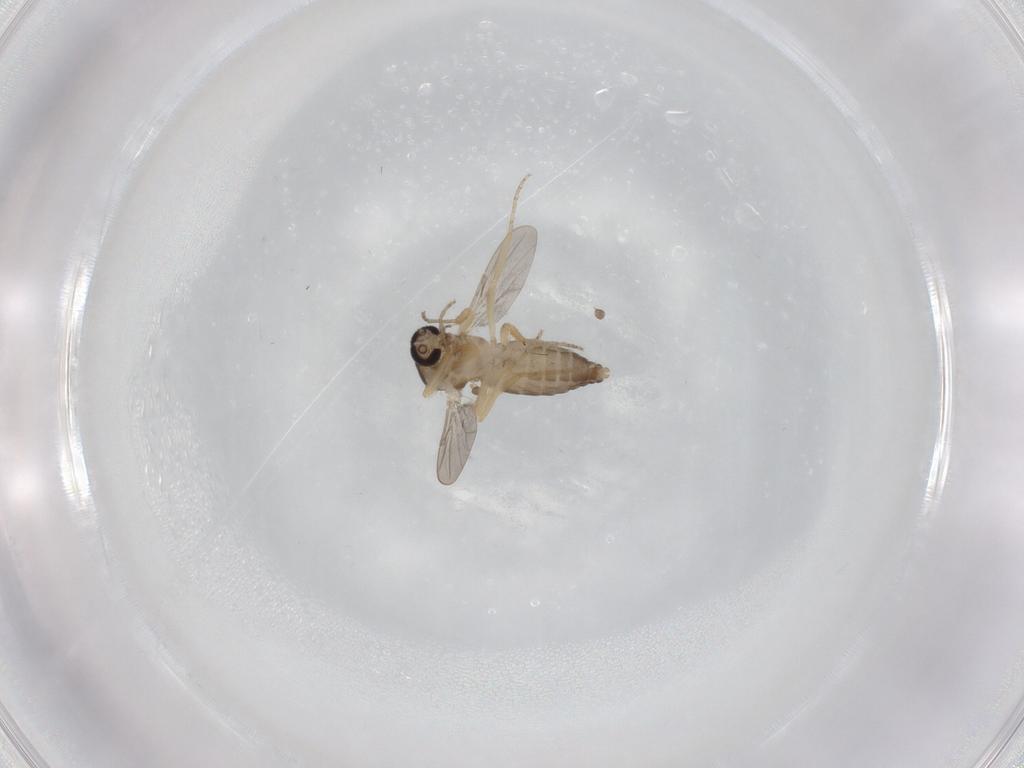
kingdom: Animalia
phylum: Arthropoda
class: Insecta
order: Diptera
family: Ceratopogonidae
